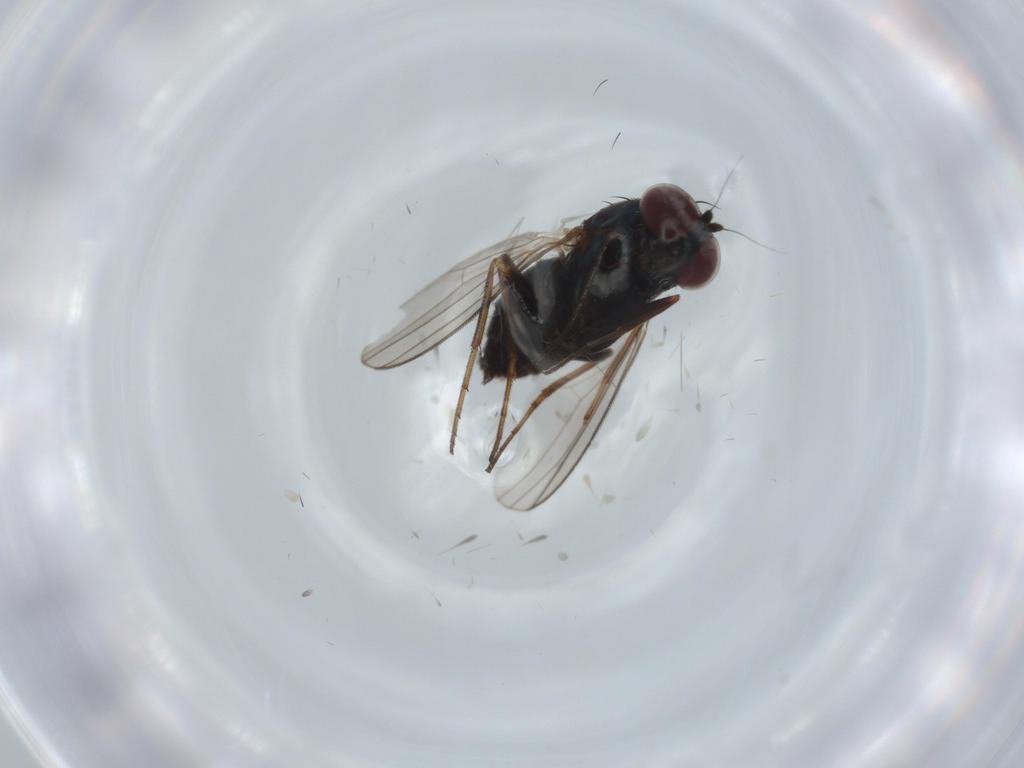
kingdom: Animalia
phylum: Arthropoda
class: Insecta
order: Diptera
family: Dolichopodidae
